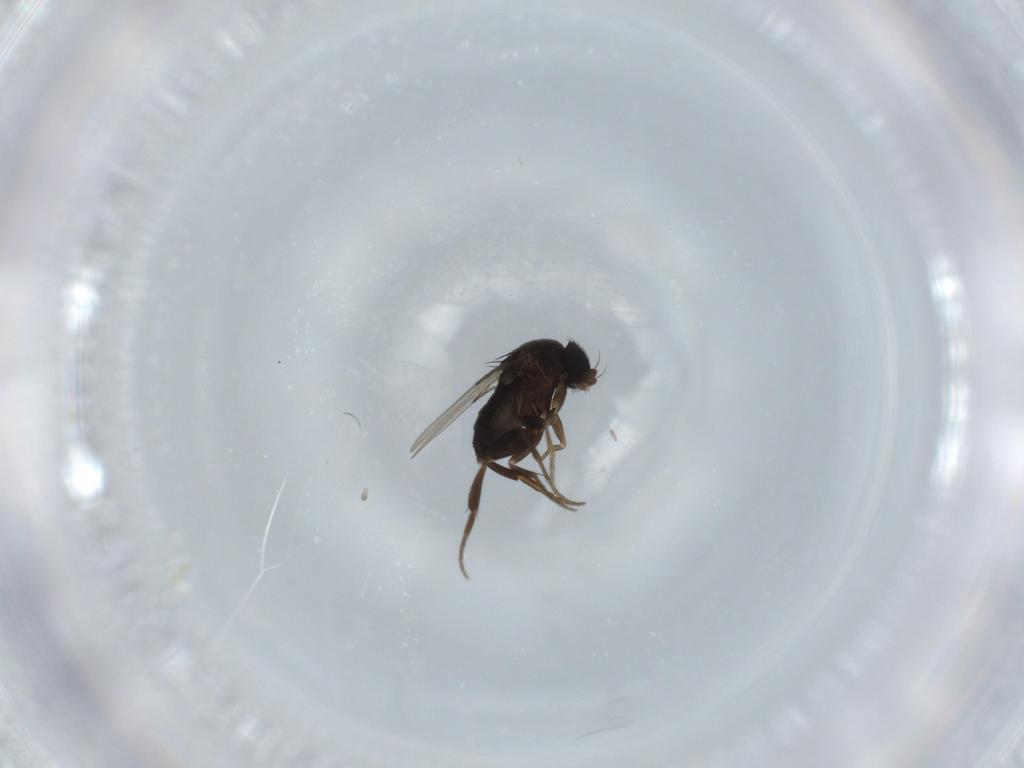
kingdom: Animalia
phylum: Arthropoda
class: Insecta
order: Diptera
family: Phoridae
